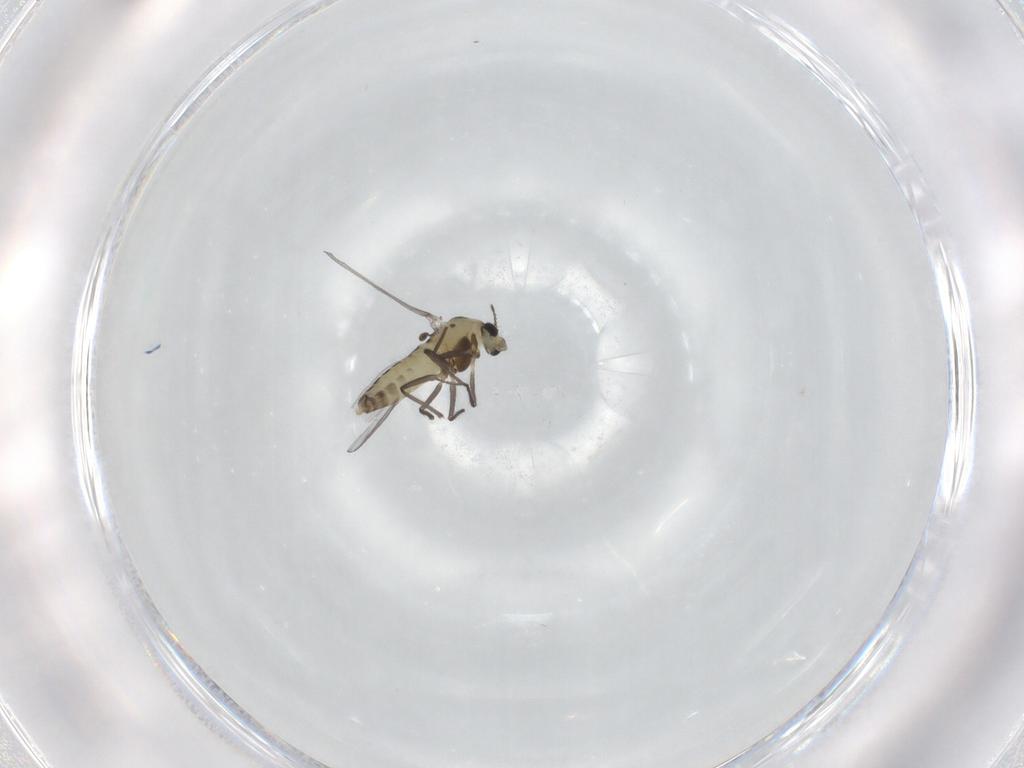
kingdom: Animalia
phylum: Arthropoda
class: Insecta
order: Diptera
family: Chironomidae
